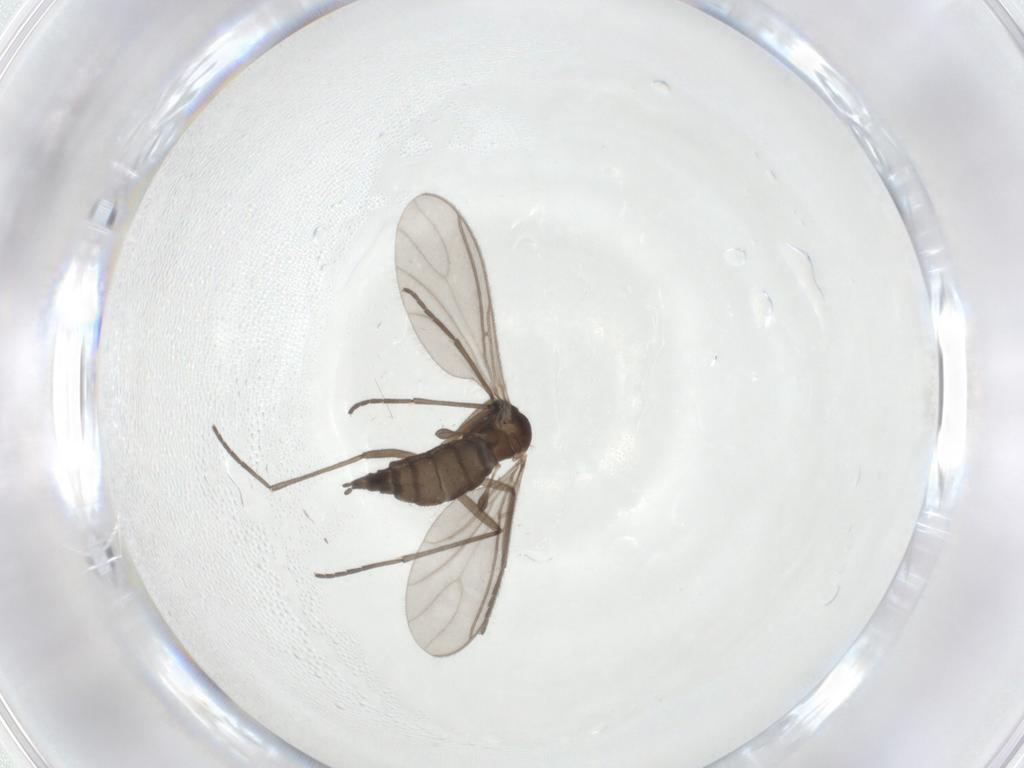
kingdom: Animalia
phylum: Arthropoda
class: Insecta
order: Diptera
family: Sciaridae
